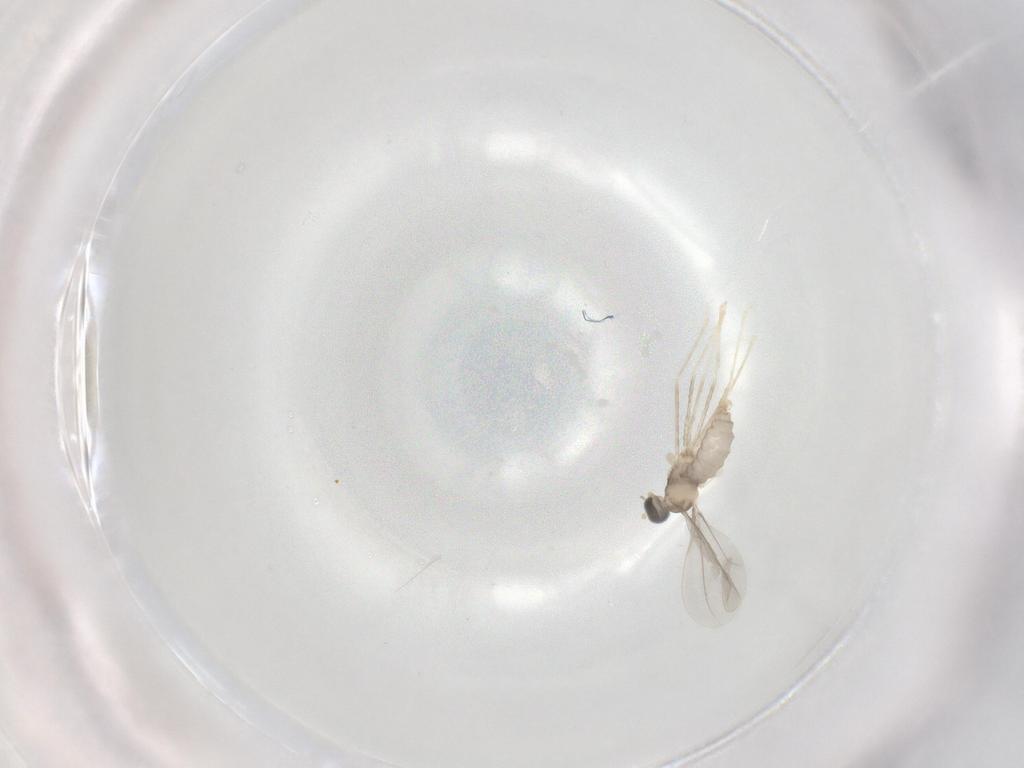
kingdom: Animalia
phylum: Arthropoda
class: Insecta
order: Diptera
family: Cecidomyiidae
